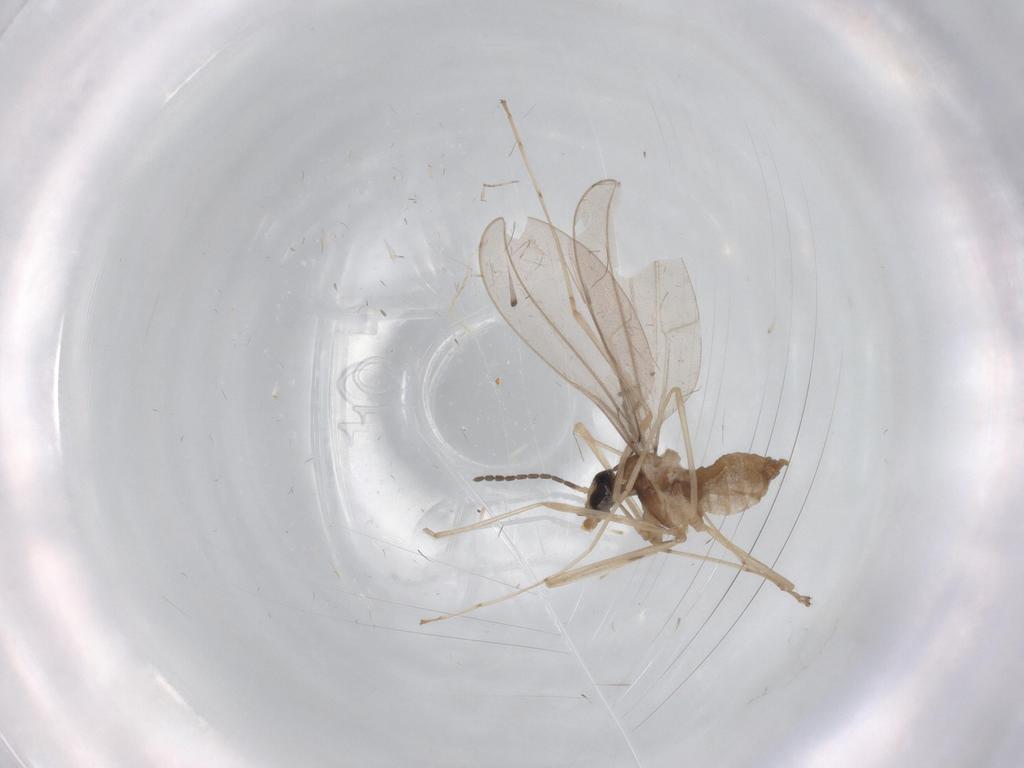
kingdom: Animalia
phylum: Arthropoda
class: Insecta
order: Diptera
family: Cecidomyiidae
